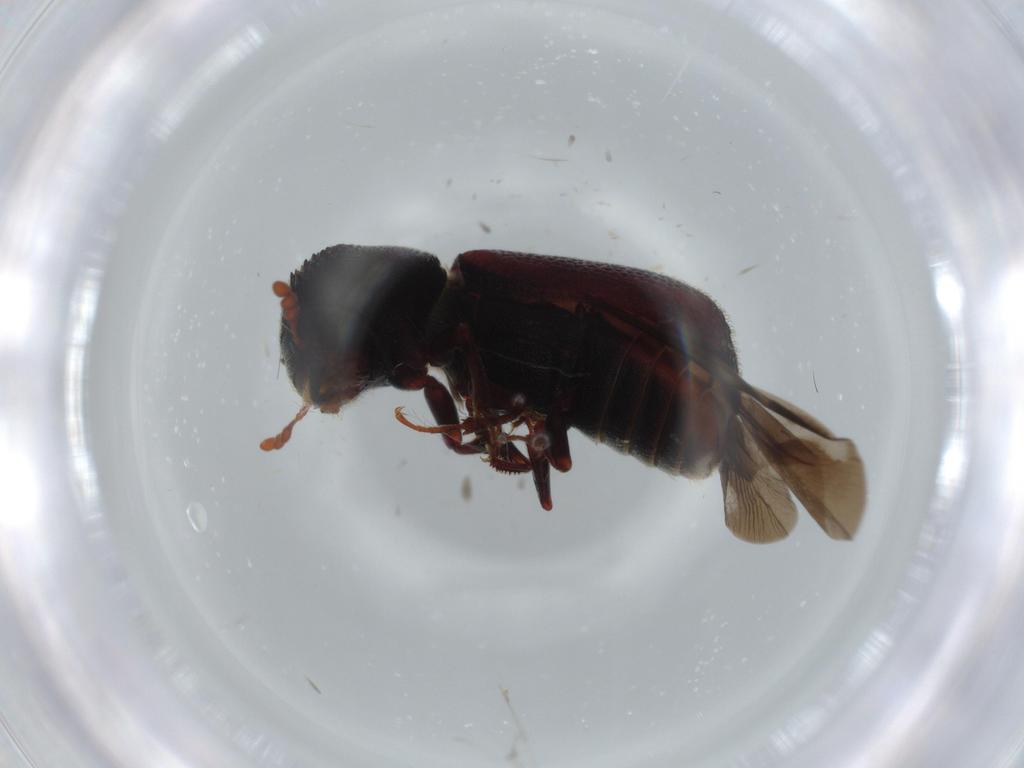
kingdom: Animalia
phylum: Arthropoda
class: Insecta
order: Coleoptera
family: Bostrichidae
